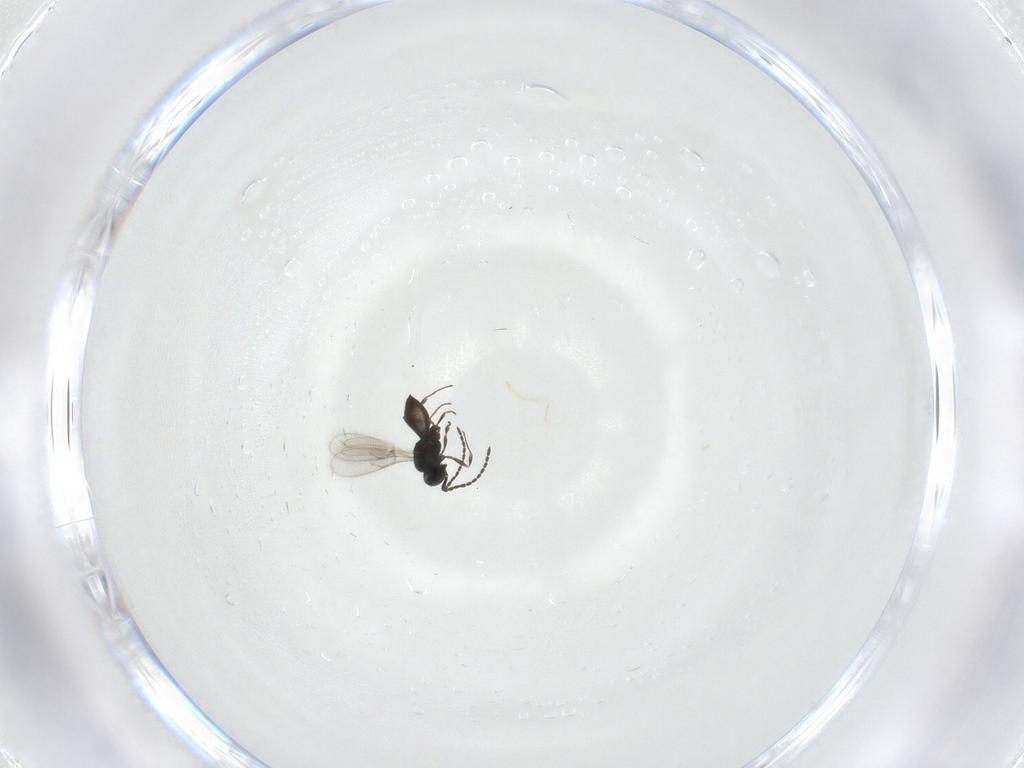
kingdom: Animalia
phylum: Arthropoda
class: Insecta
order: Hymenoptera
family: Scelionidae
